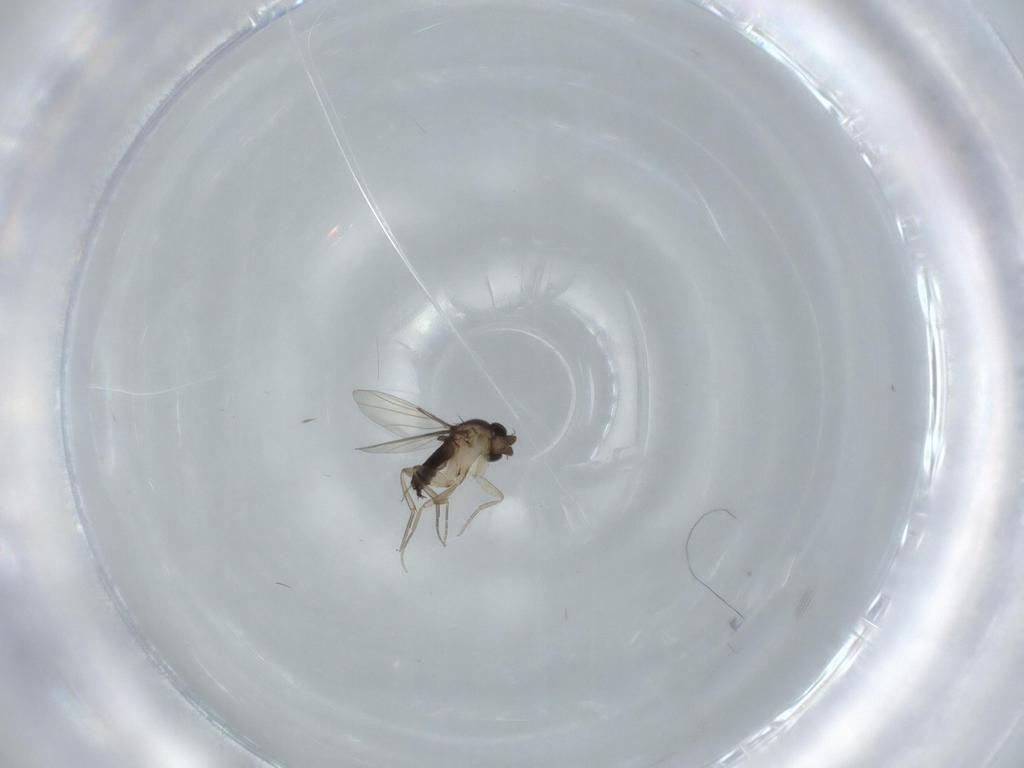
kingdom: Animalia
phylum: Arthropoda
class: Insecta
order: Diptera
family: Phoridae
